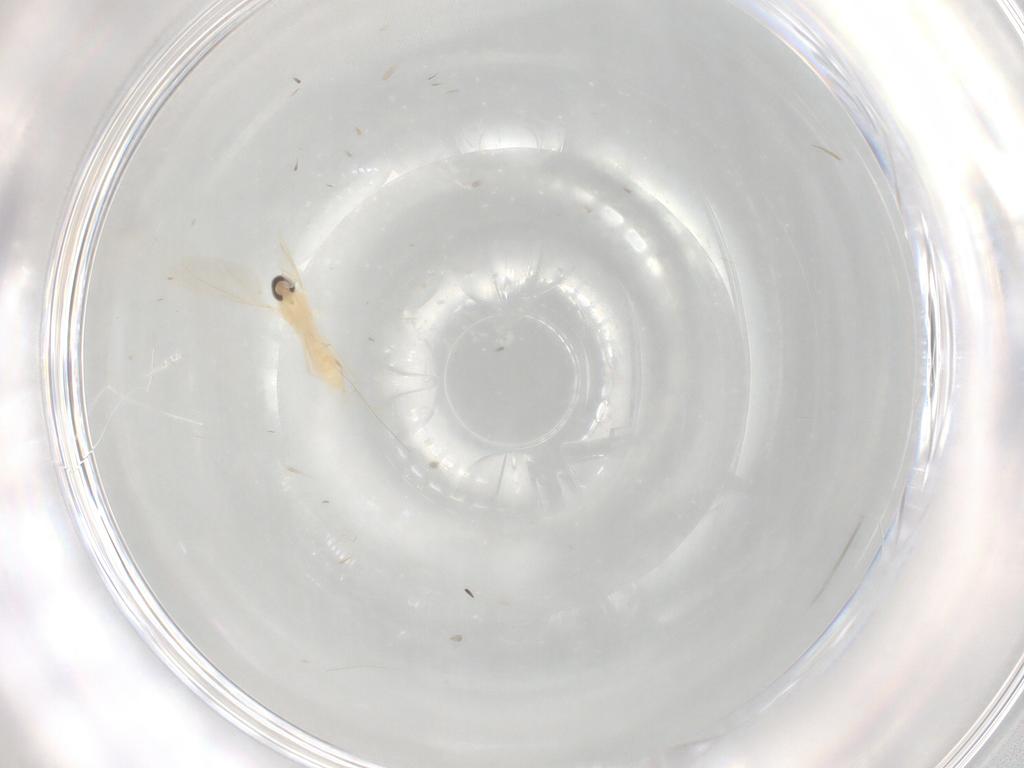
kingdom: Animalia
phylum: Arthropoda
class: Insecta
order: Diptera
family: Cecidomyiidae
